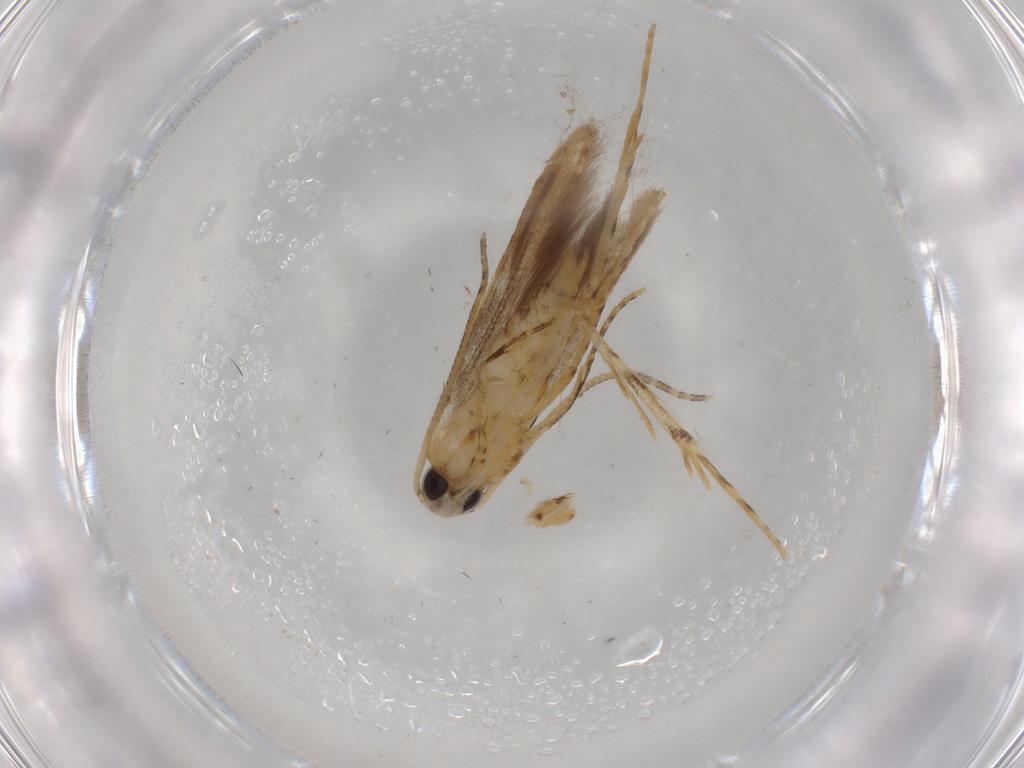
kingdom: Animalia
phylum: Arthropoda
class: Insecta
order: Lepidoptera
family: Batrachedridae
